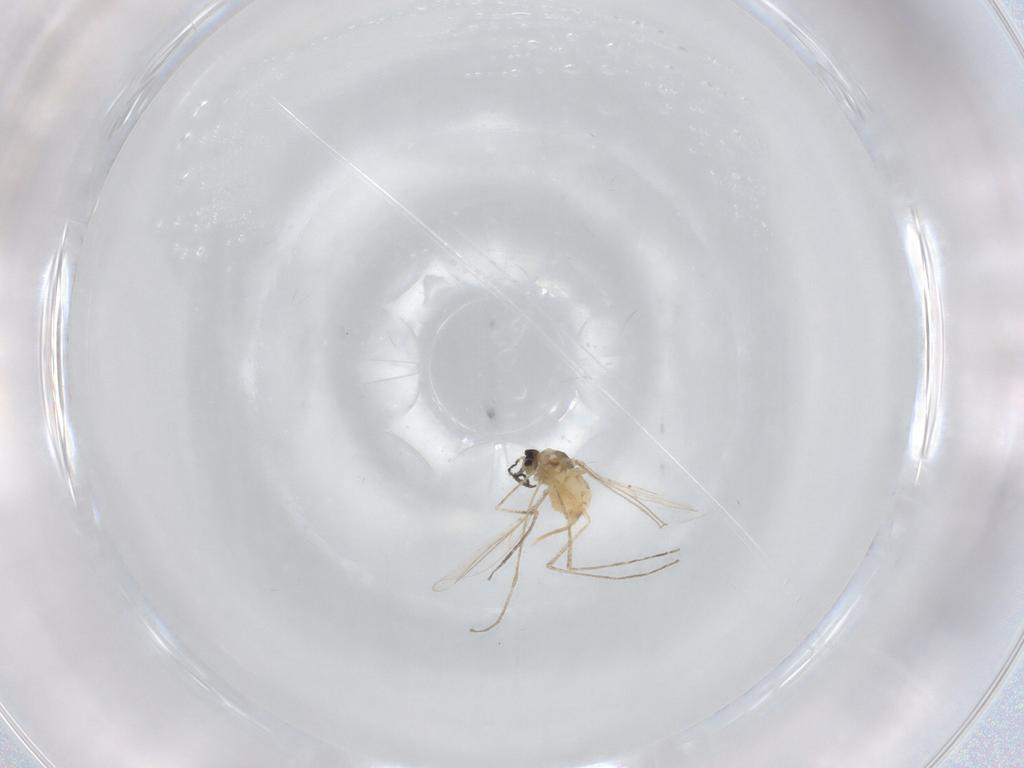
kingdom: Animalia
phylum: Arthropoda
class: Insecta
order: Diptera
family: Cecidomyiidae
